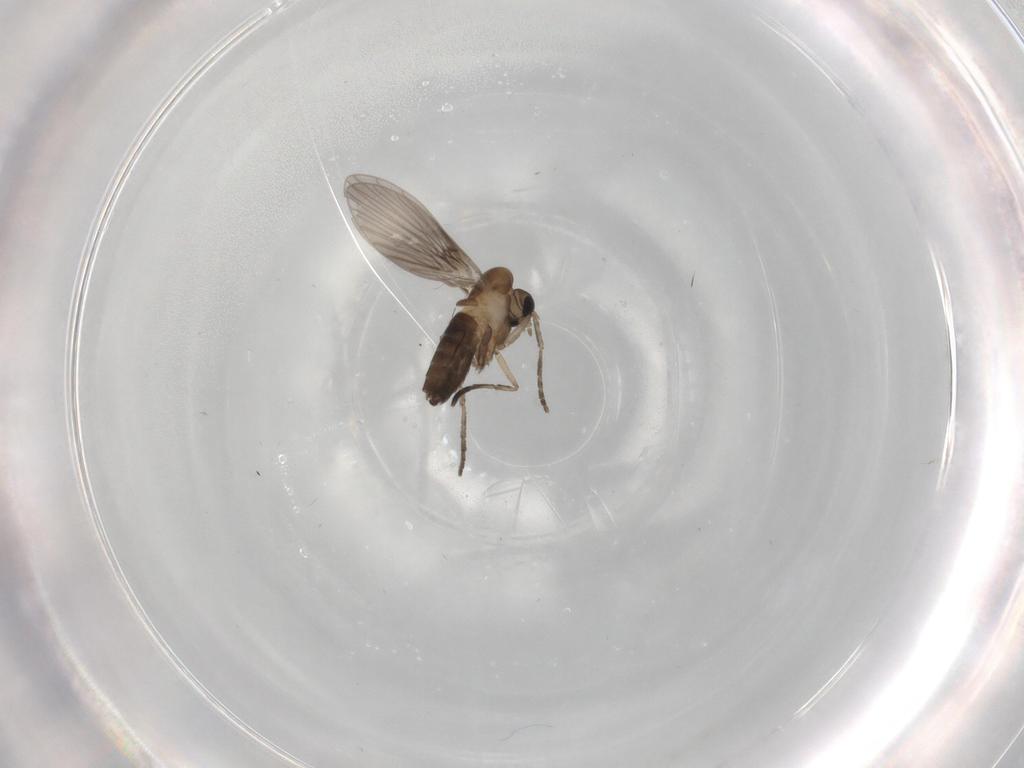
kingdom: Animalia
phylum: Arthropoda
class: Insecta
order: Diptera
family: Psychodidae
